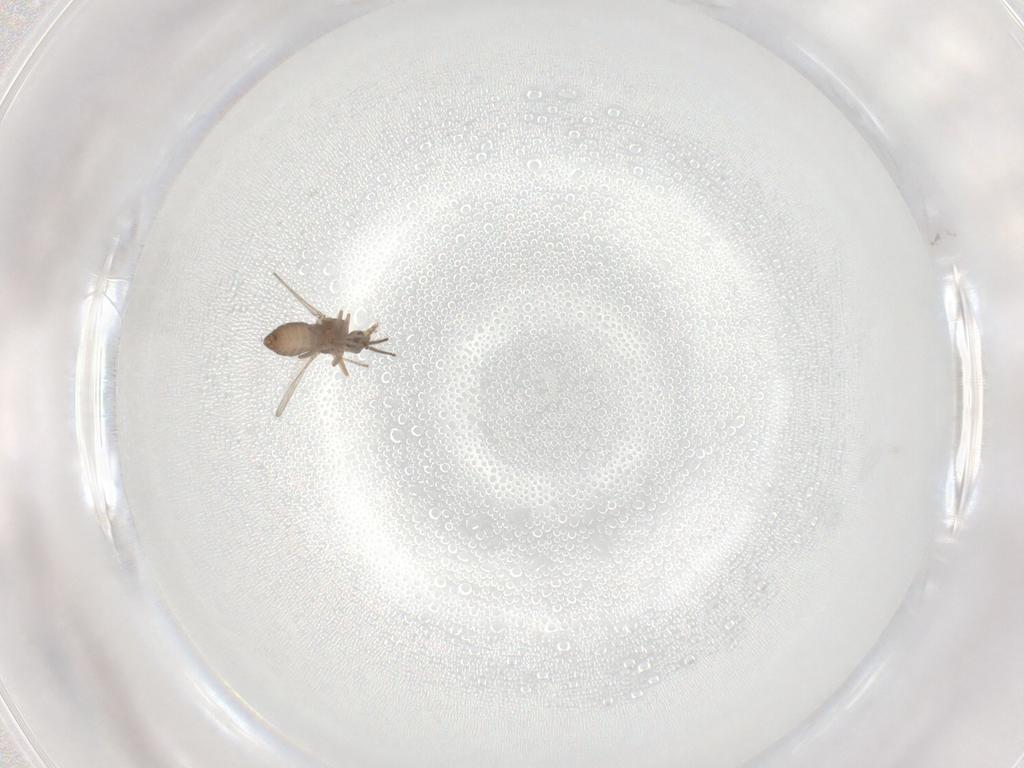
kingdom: Animalia
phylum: Arthropoda
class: Insecta
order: Diptera
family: Ceratopogonidae
